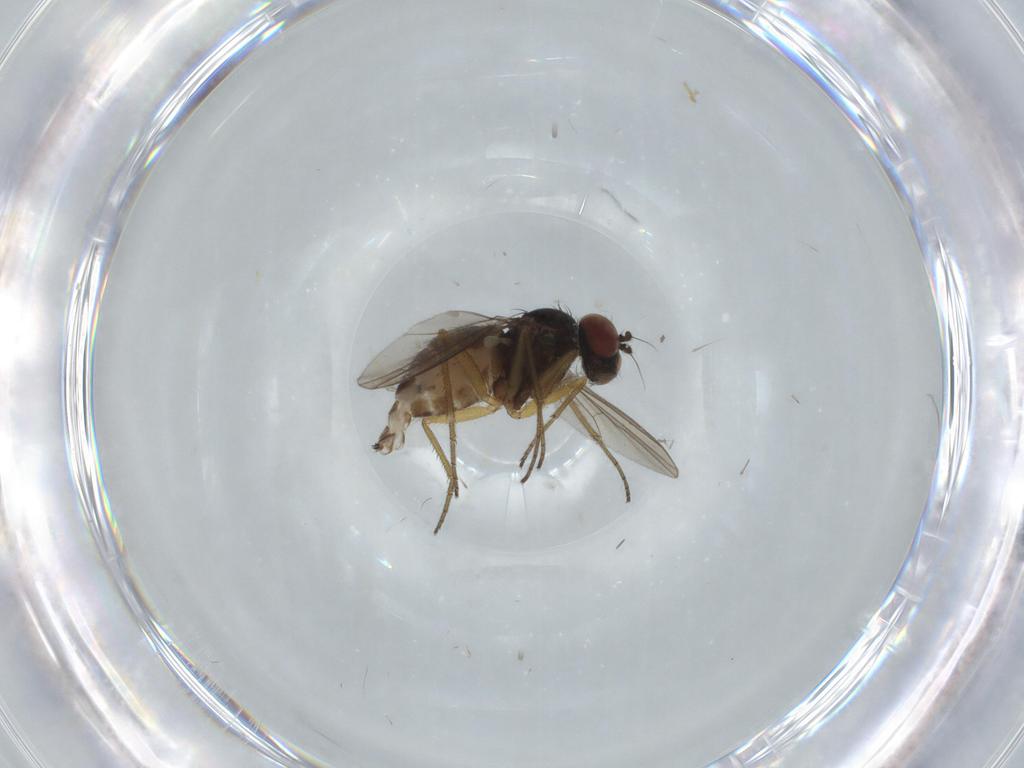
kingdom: Animalia
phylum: Arthropoda
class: Insecta
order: Diptera
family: Dolichopodidae
